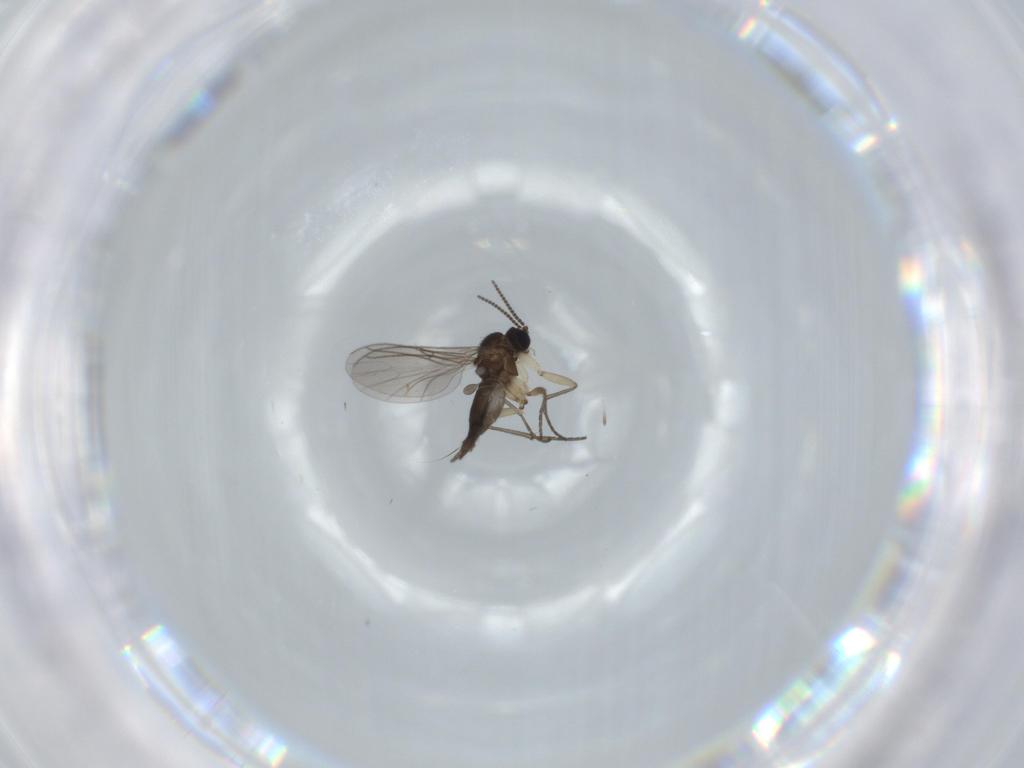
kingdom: Animalia
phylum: Arthropoda
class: Insecta
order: Diptera
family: Sciaridae
